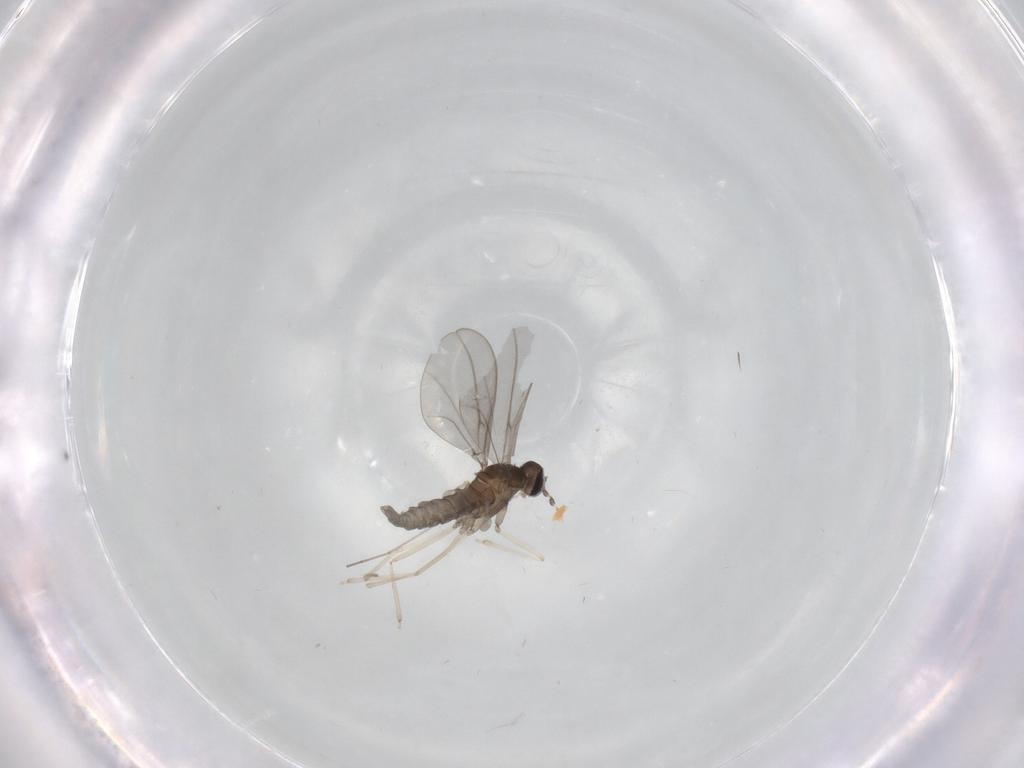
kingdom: Animalia
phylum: Arthropoda
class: Insecta
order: Diptera
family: Cecidomyiidae
